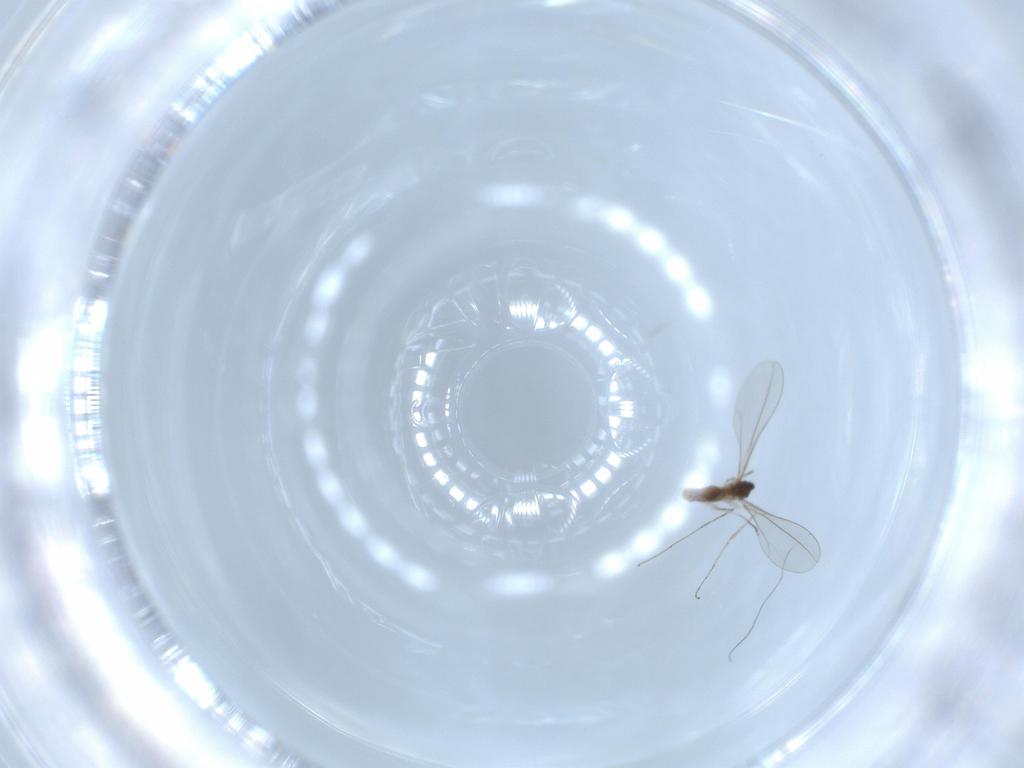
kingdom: Animalia
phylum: Arthropoda
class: Insecta
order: Diptera
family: Cecidomyiidae
